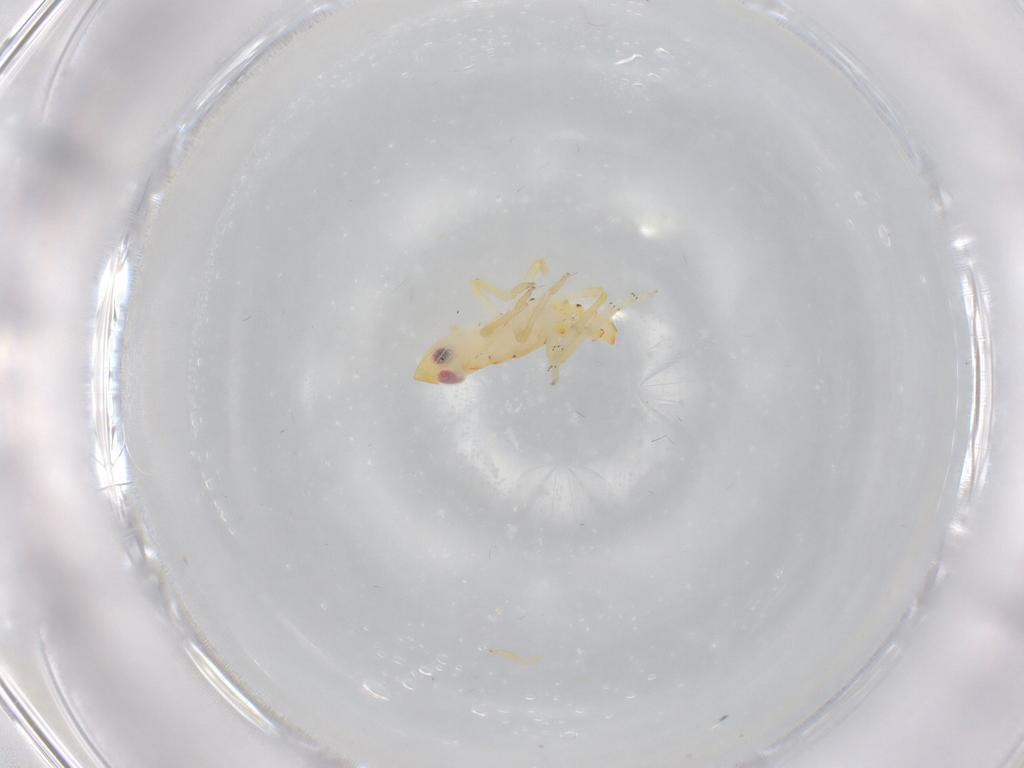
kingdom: Animalia
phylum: Arthropoda
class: Insecta
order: Hemiptera
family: Tropiduchidae
